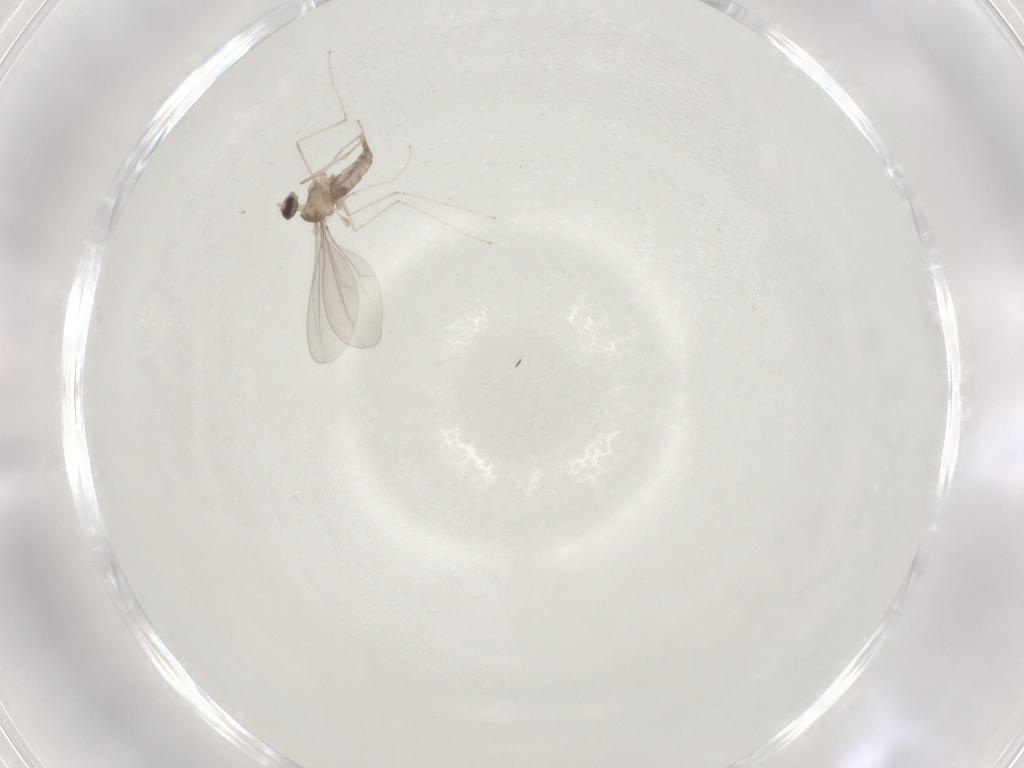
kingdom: Animalia
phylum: Arthropoda
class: Insecta
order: Diptera
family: Cecidomyiidae
